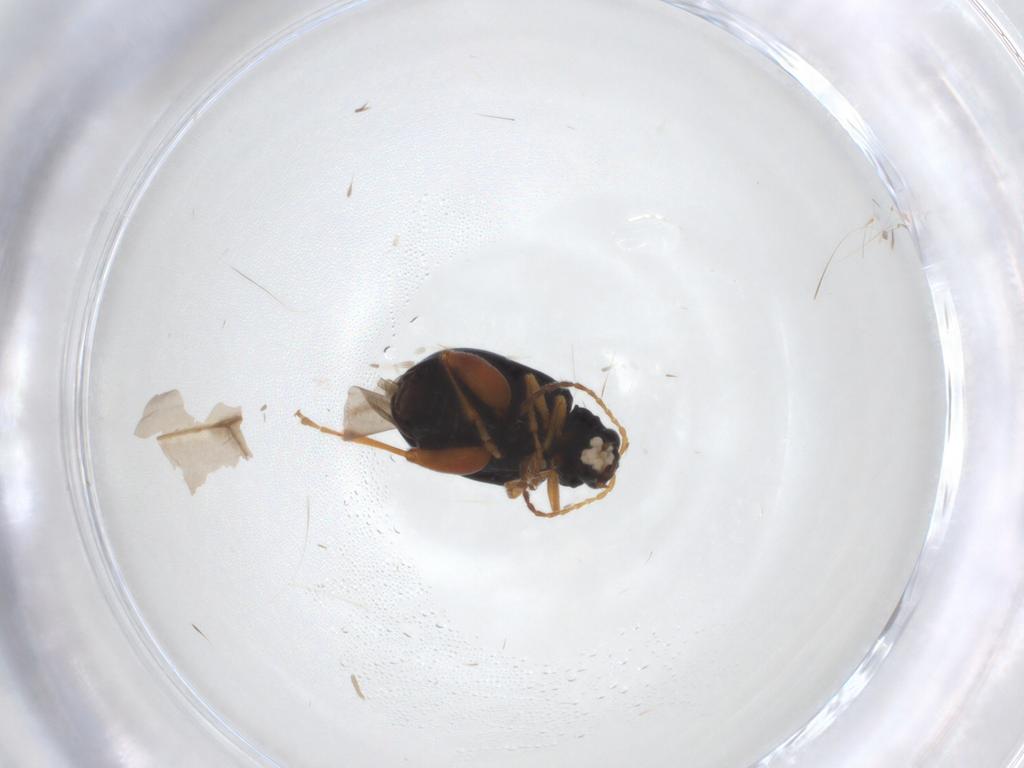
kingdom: Animalia
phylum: Arthropoda
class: Insecta
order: Coleoptera
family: Chrysomelidae
